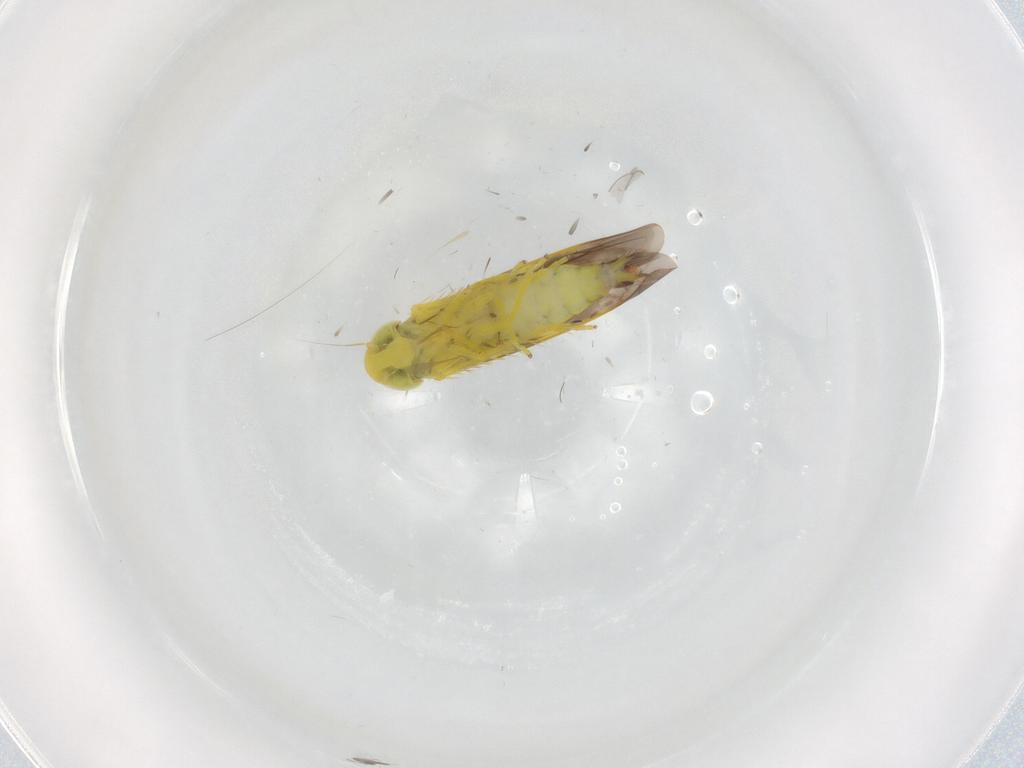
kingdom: Animalia
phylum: Arthropoda
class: Insecta
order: Hemiptera
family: Cicadellidae
